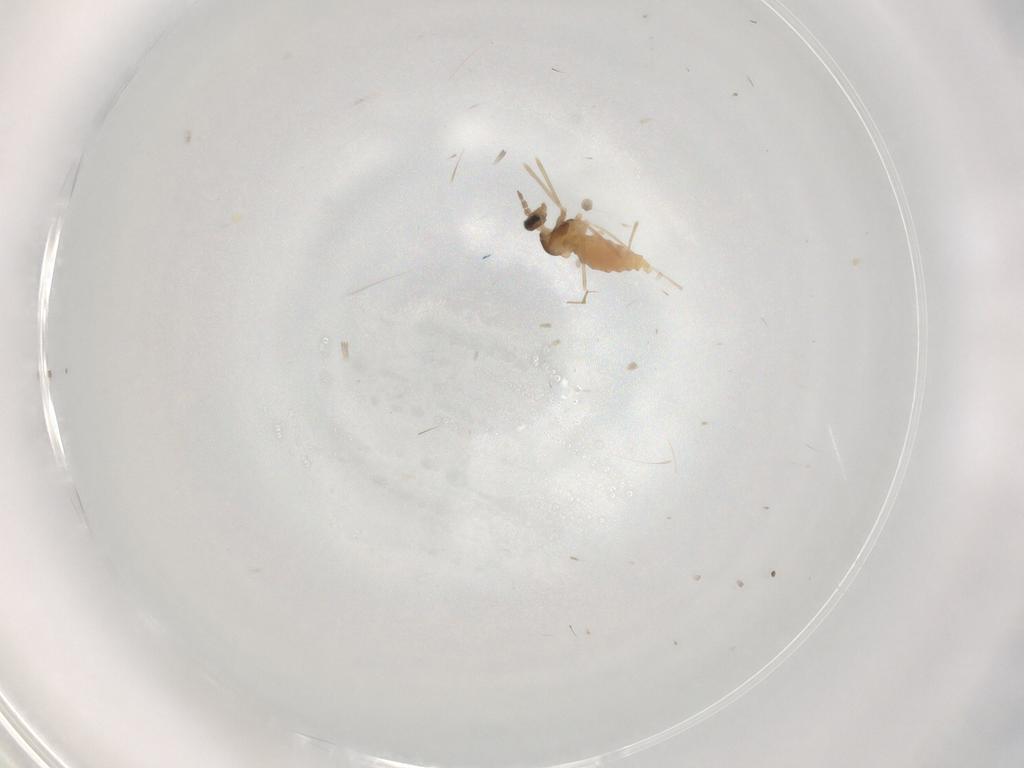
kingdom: Animalia
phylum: Arthropoda
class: Insecta
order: Diptera
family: Cecidomyiidae
